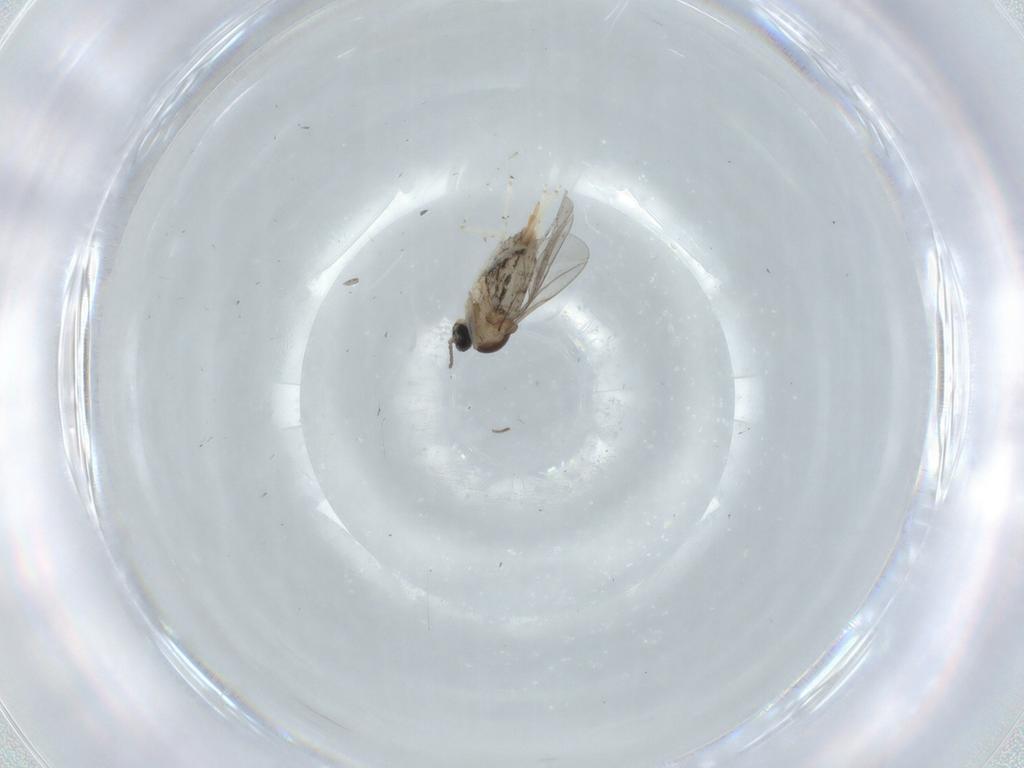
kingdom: Animalia
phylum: Arthropoda
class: Insecta
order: Diptera
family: Cecidomyiidae
